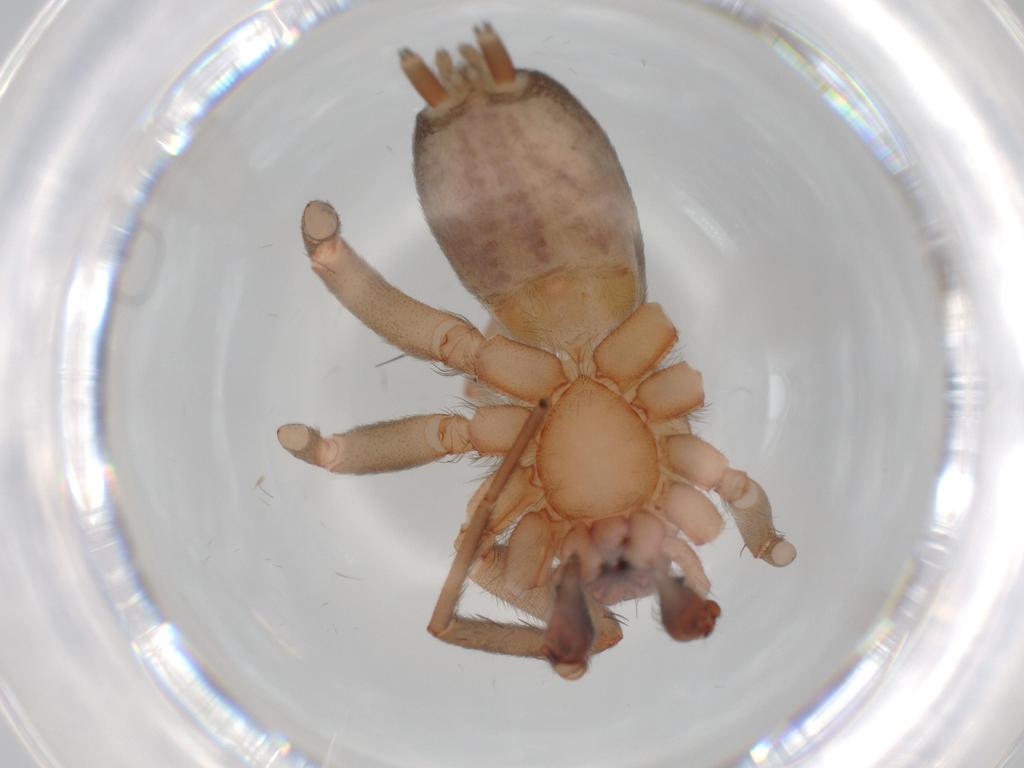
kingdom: Animalia
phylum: Arthropoda
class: Arachnida
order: Araneae
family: Gnaphosidae
